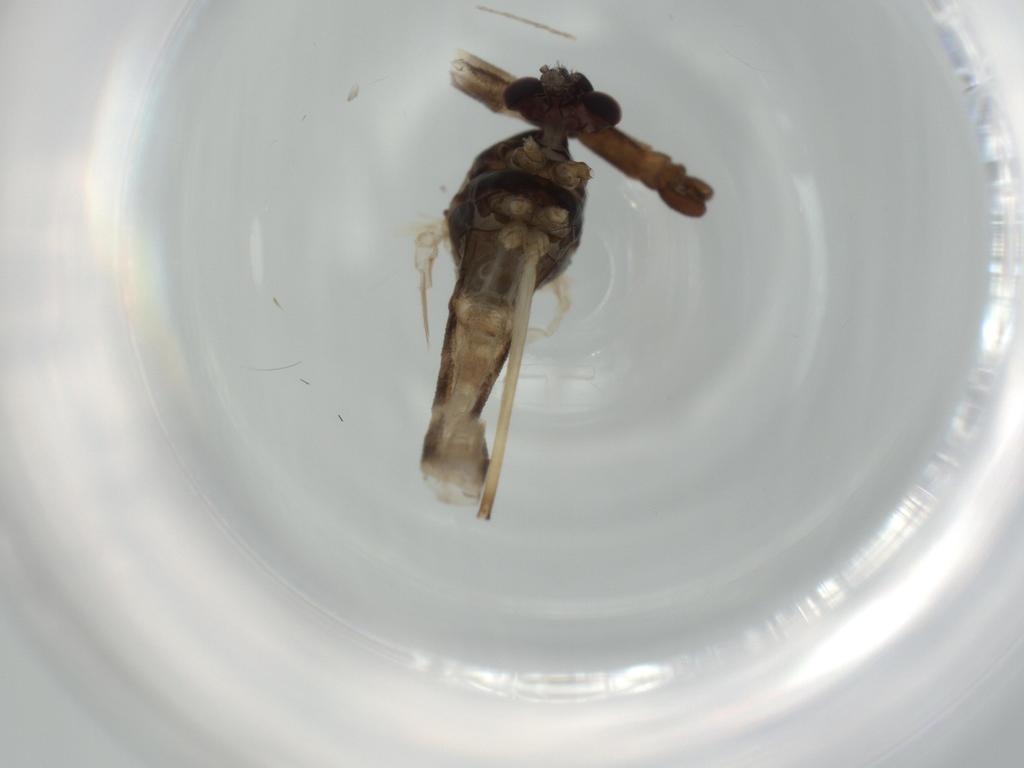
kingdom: Animalia
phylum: Arthropoda
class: Insecta
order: Diptera
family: Phoridae
